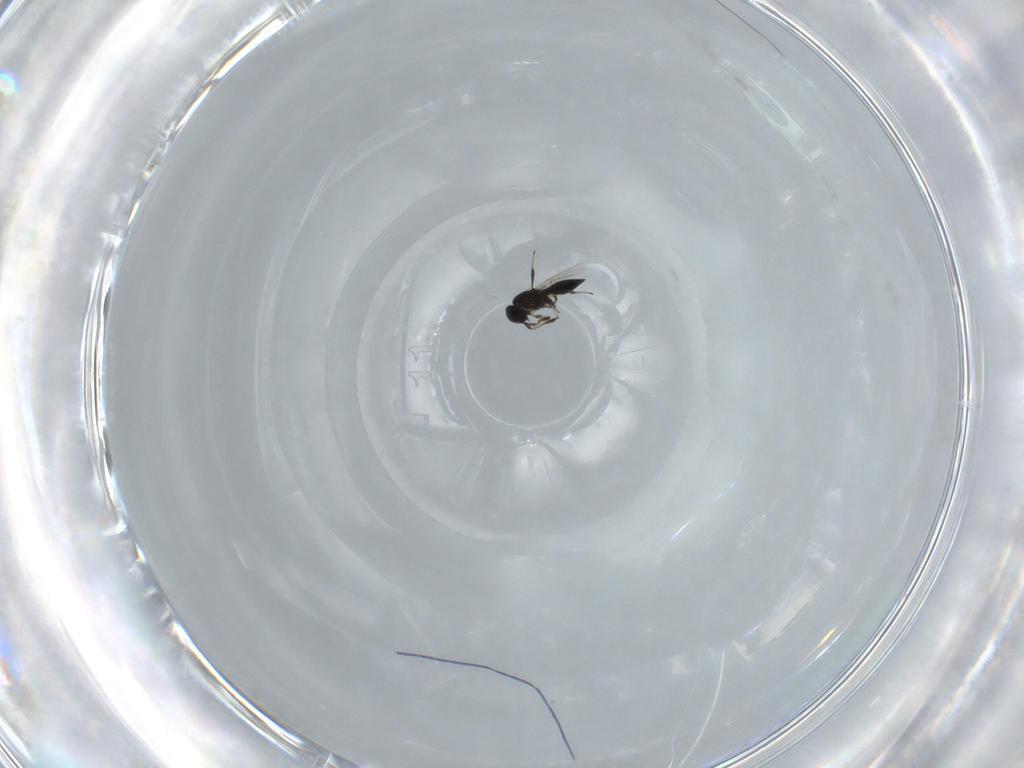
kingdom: Animalia
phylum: Arthropoda
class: Insecta
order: Hymenoptera
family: Platygastridae
